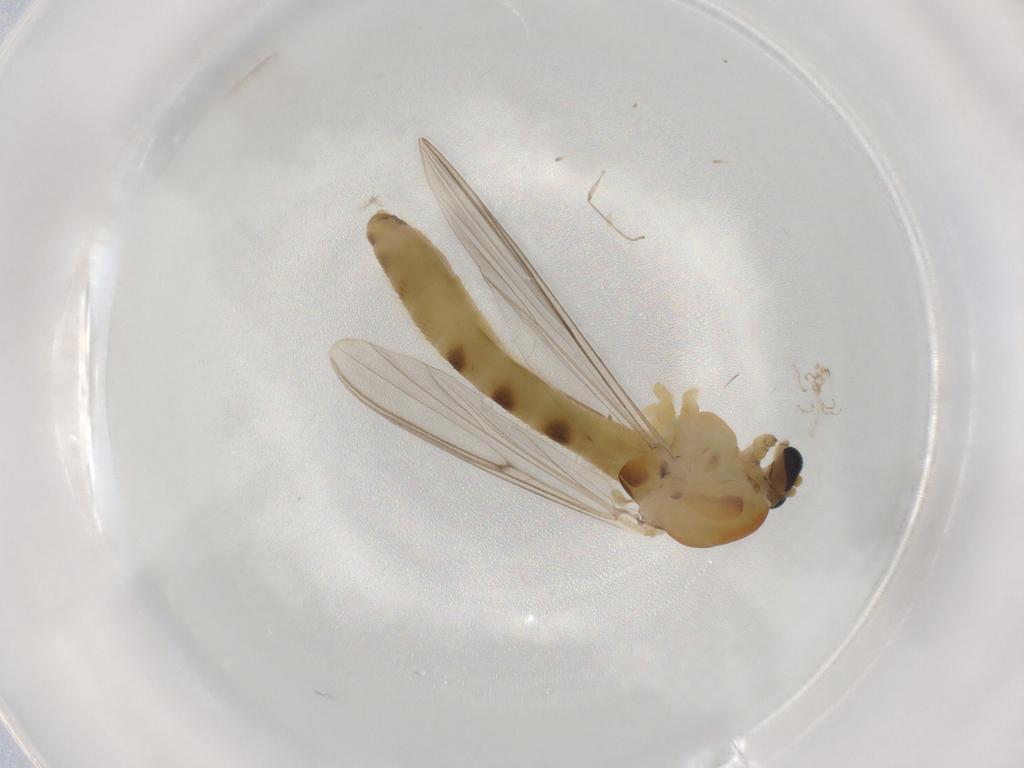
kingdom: Animalia
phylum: Arthropoda
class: Insecta
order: Diptera
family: Chironomidae
